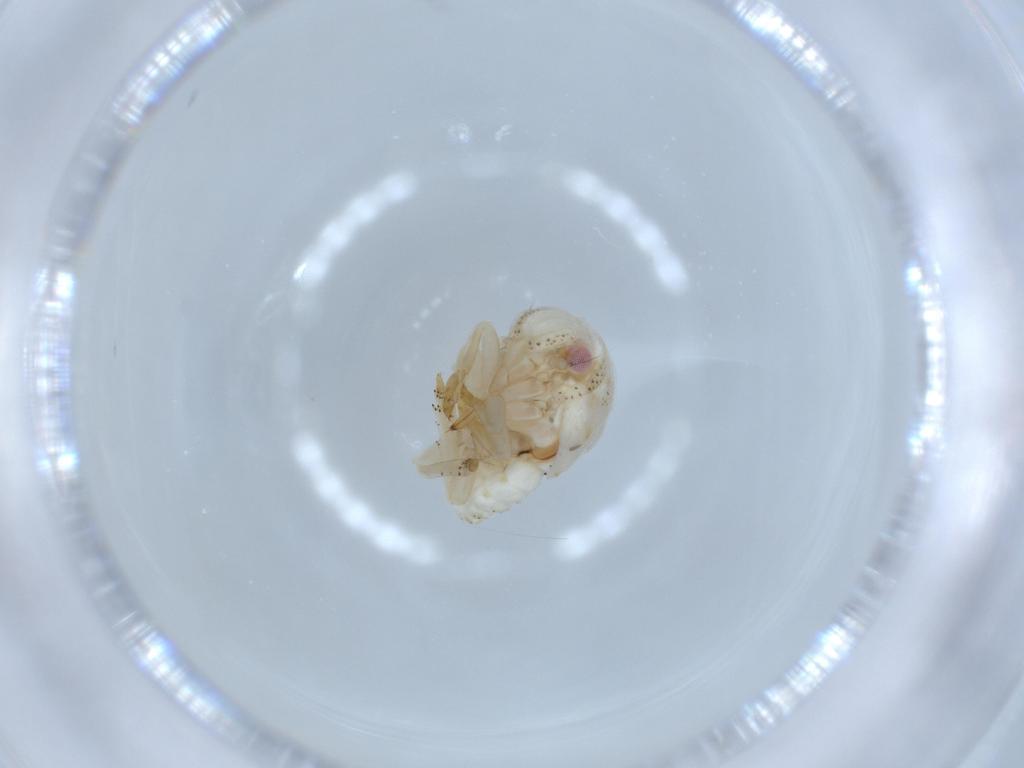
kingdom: Animalia
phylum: Arthropoda
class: Insecta
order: Hemiptera
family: Acanaloniidae
